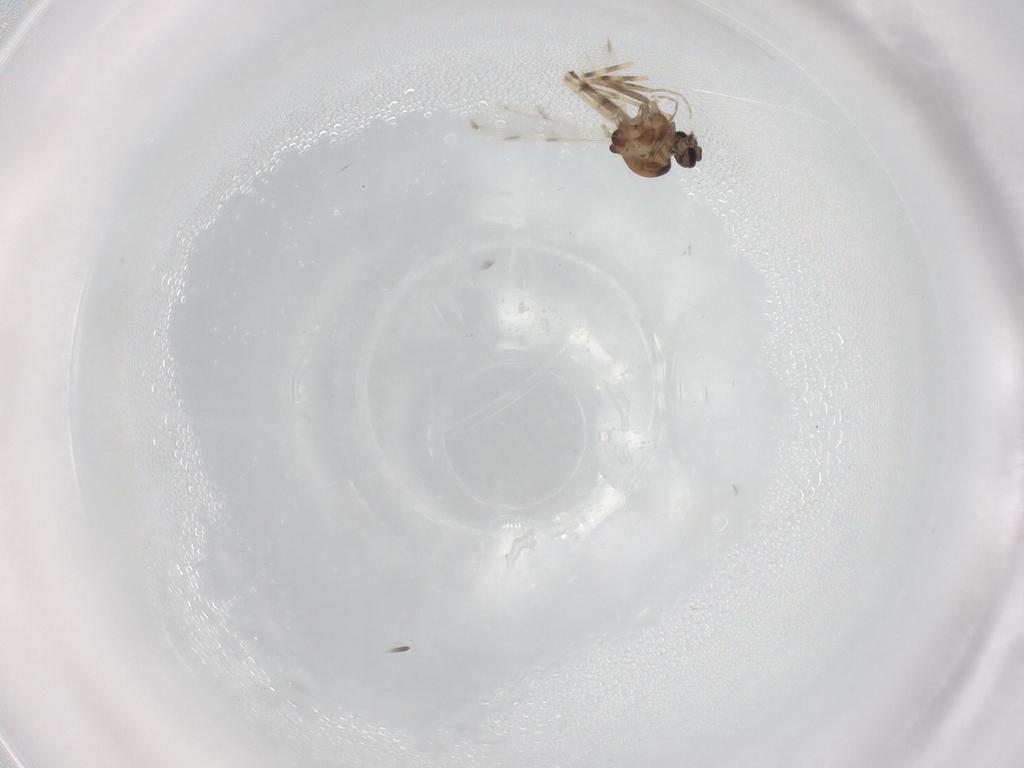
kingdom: Animalia
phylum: Arthropoda
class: Insecta
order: Diptera
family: Ceratopogonidae
